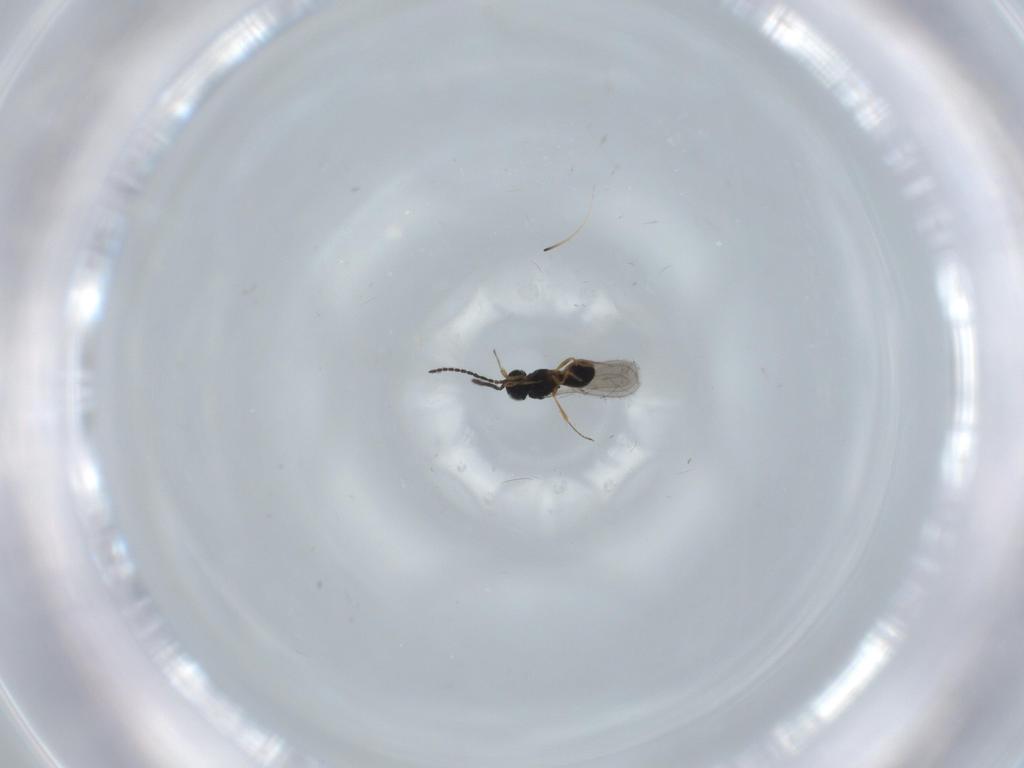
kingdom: Animalia
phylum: Arthropoda
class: Insecta
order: Hymenoptera
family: Scelionidae
